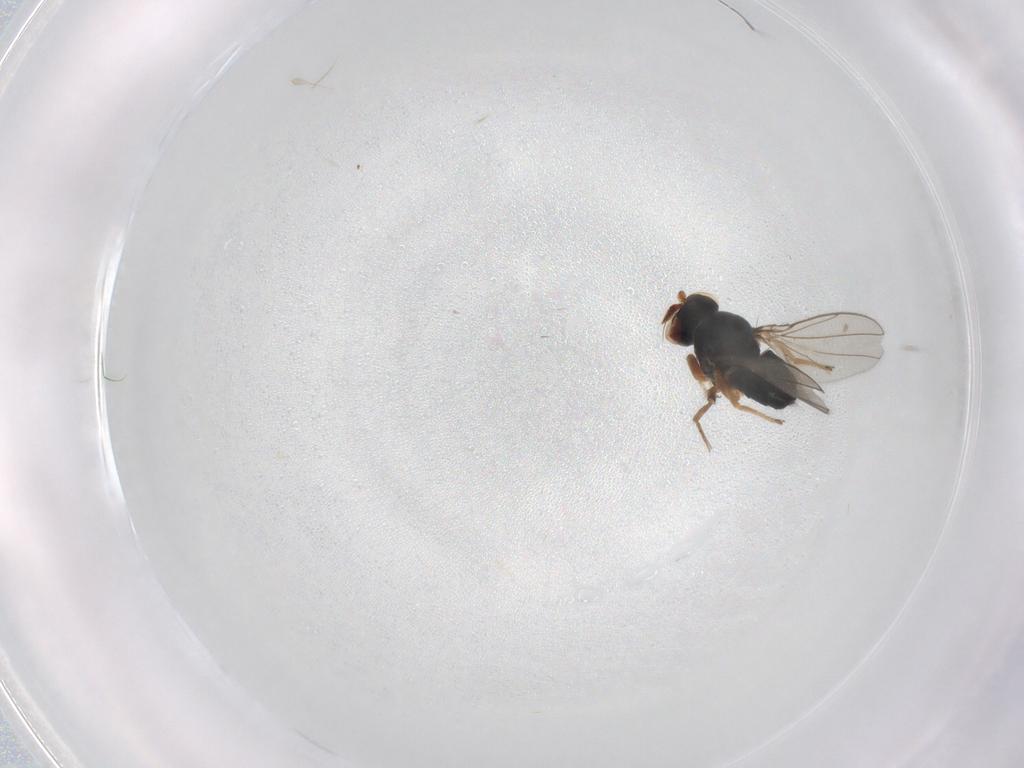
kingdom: Animalia
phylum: Arthropoda
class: Insecta
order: Diptera
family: Ephydridae
